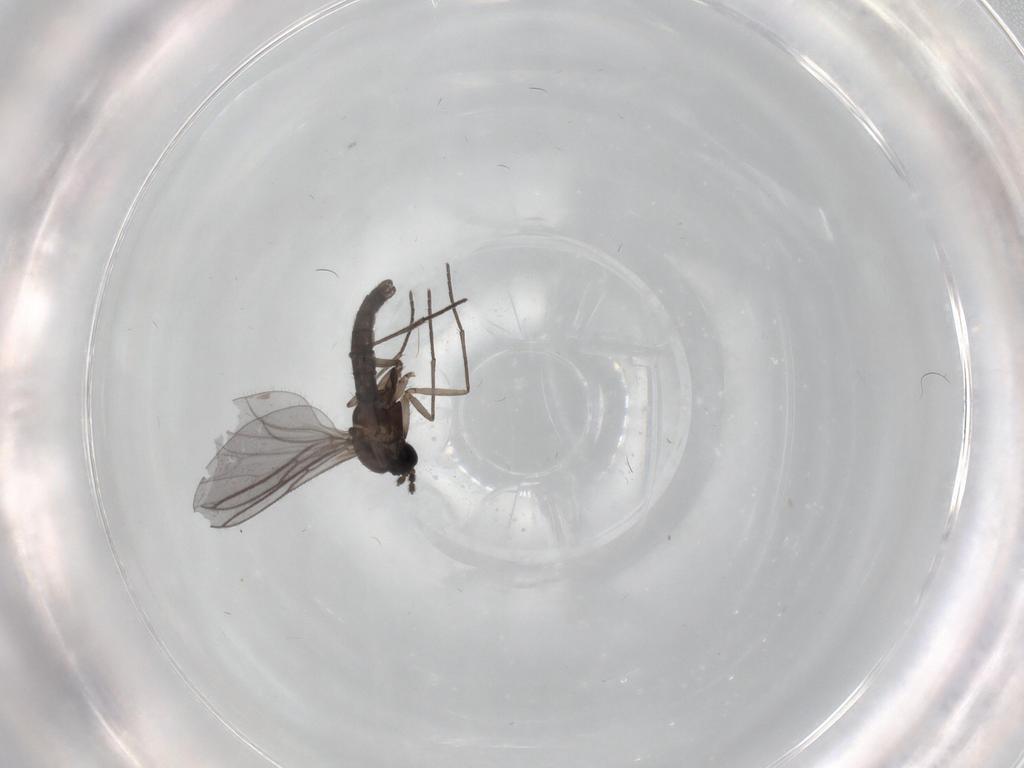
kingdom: Animalia
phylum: Arthropoda
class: Insecta
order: Diptera
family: Sciaridae
